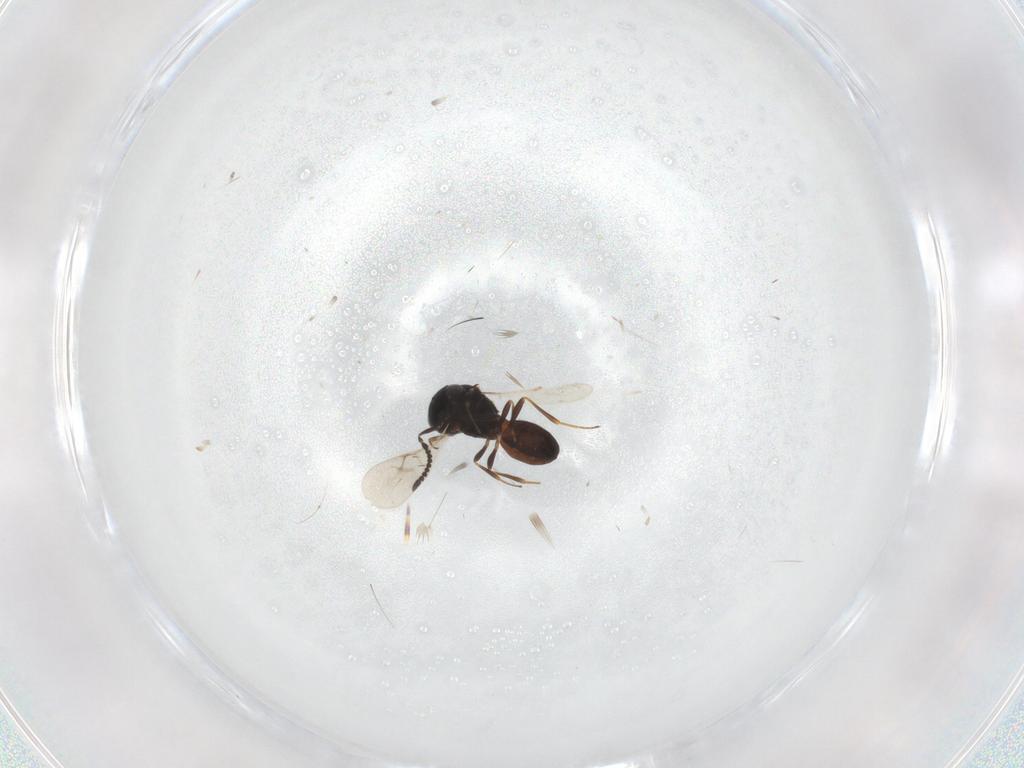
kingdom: Animalia
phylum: Arthropoda
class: Insecta
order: Hymenoptera
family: Scelionidae
